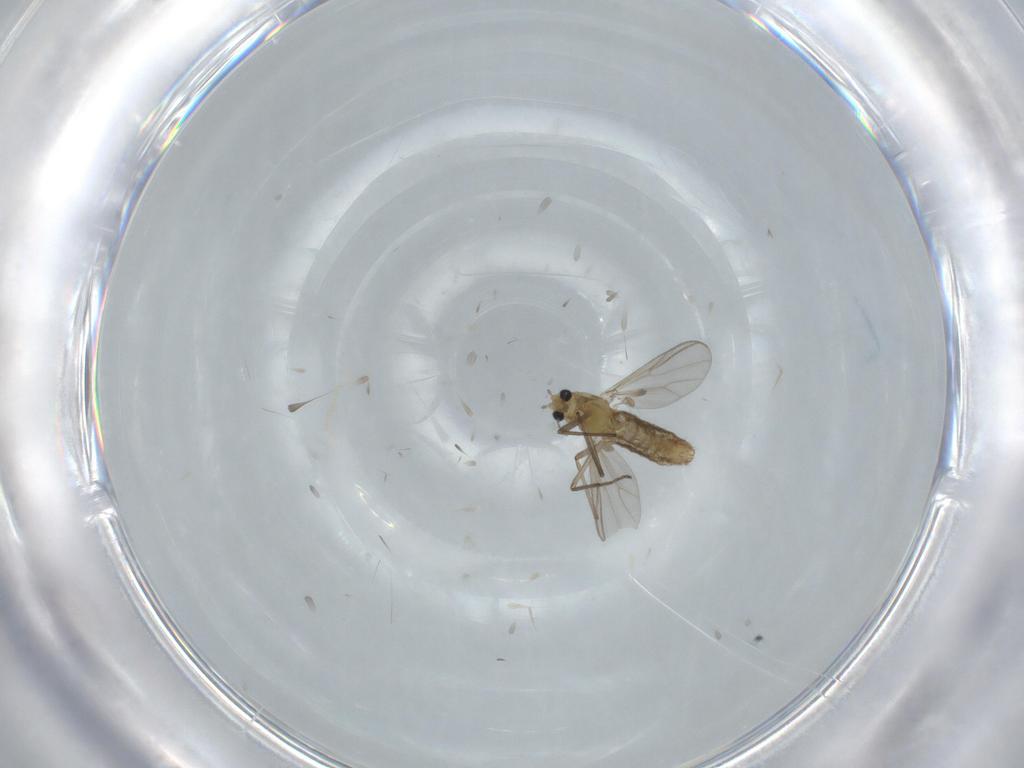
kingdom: Animalia
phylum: Arthropoda
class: Insecta
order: Diptera
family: Chironomidae
